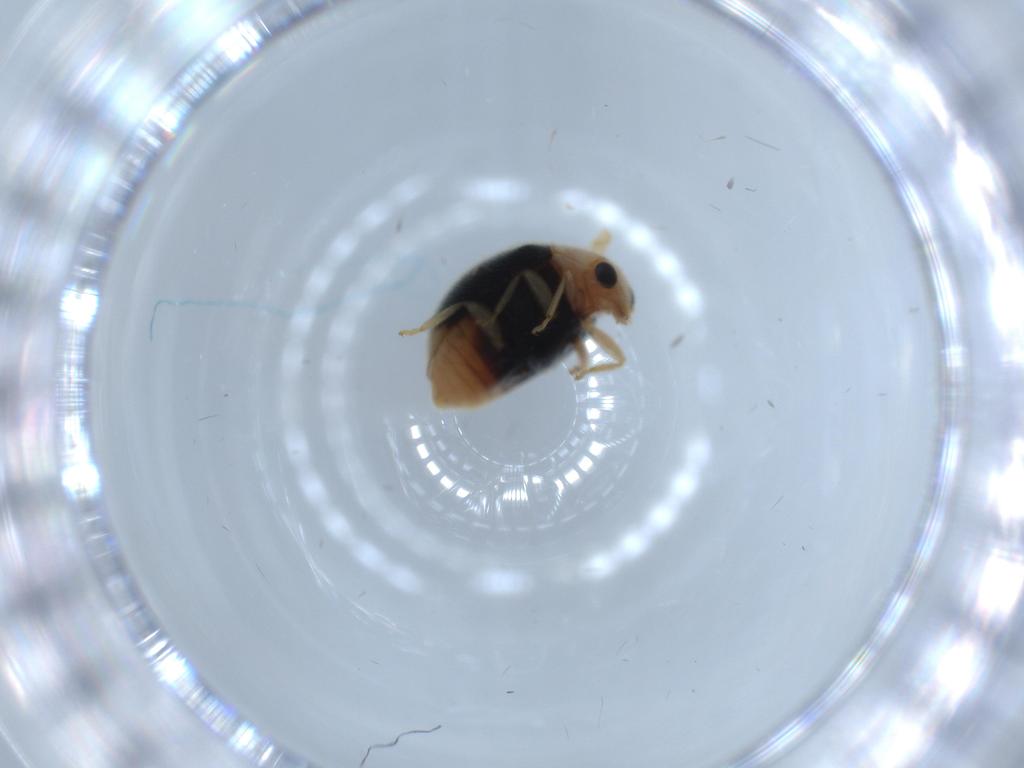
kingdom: Animalia
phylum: Arthropoda
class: Insecta
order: Coleoptera
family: Coccinellidae
